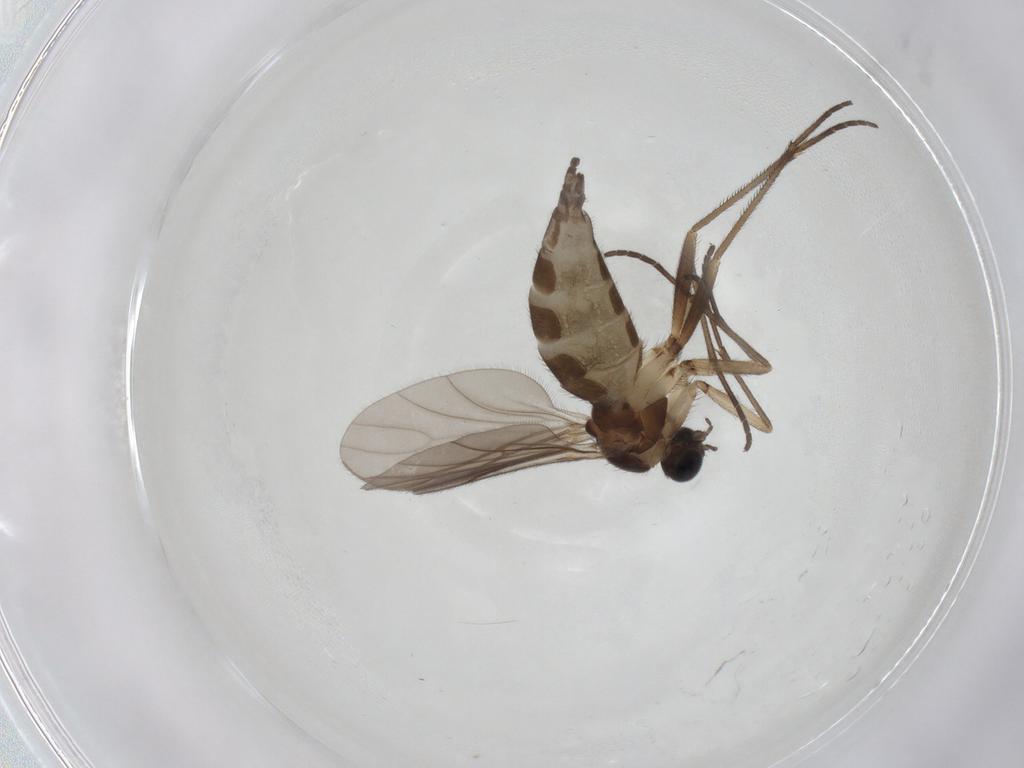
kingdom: Animalia
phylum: Arthropoda
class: Insecta
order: Diptera
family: Sciaridae
